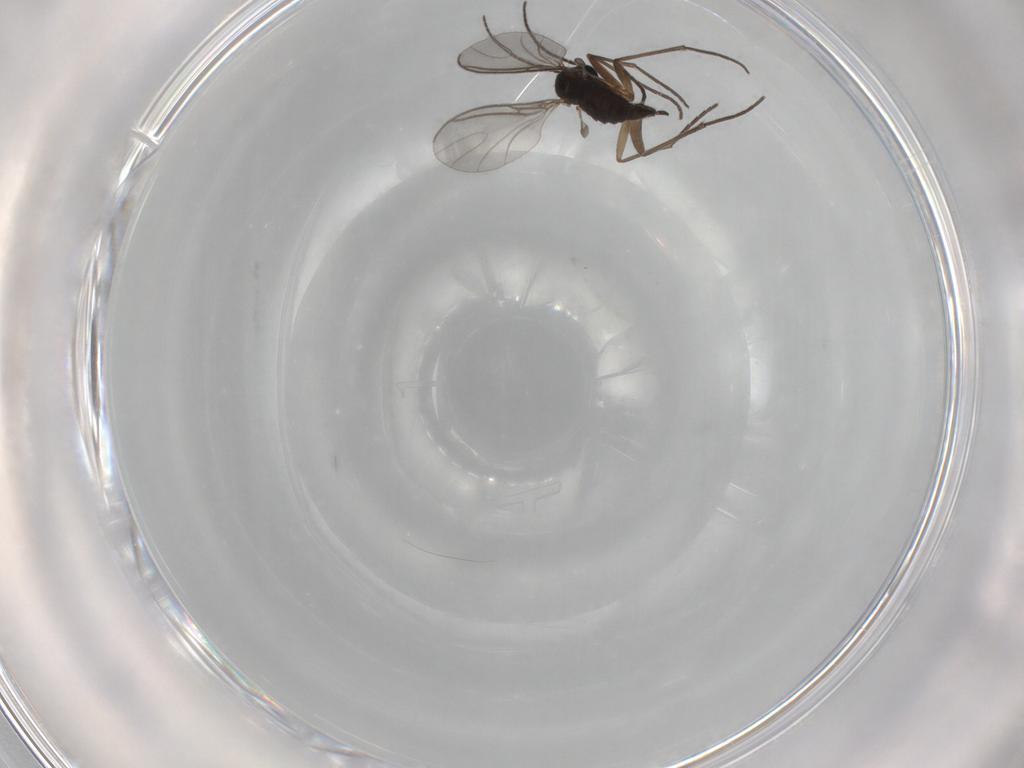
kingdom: Animalia
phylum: Arthropoda
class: Insecta
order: Diptera
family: Sciaridae
